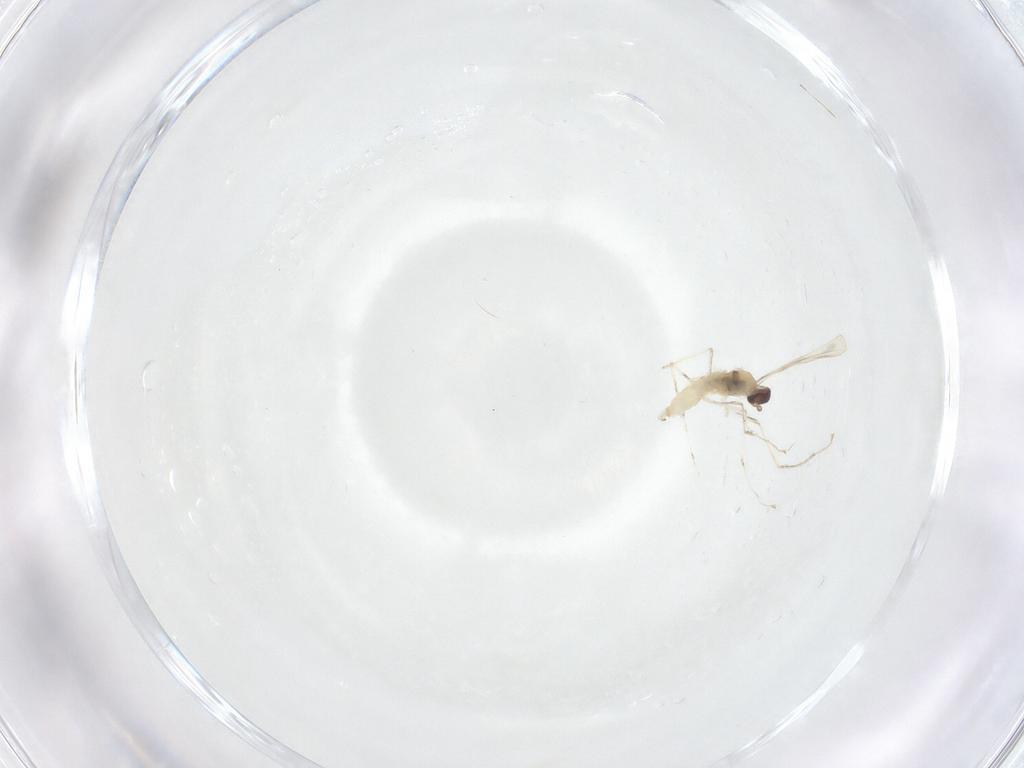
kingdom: Animalia
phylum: Arthropoda
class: Insecta
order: Diptera
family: Cecidomyiidae
